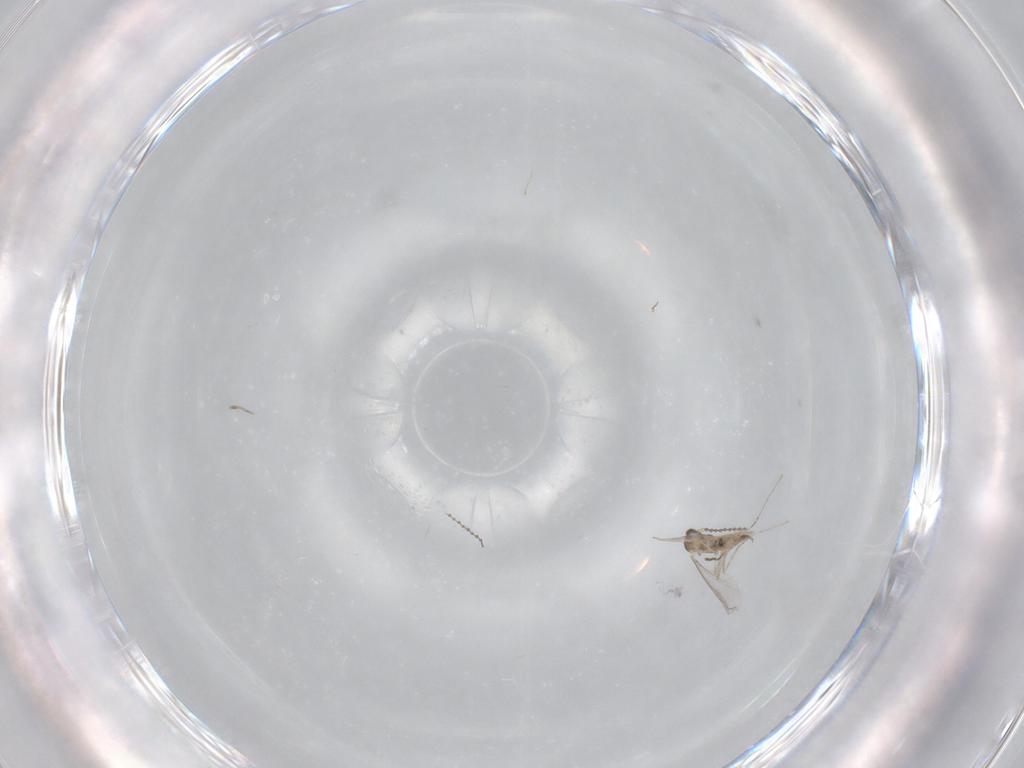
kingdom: Animalia
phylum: Arthropoda
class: Insecta
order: Diptera
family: Cecidomyiidae
